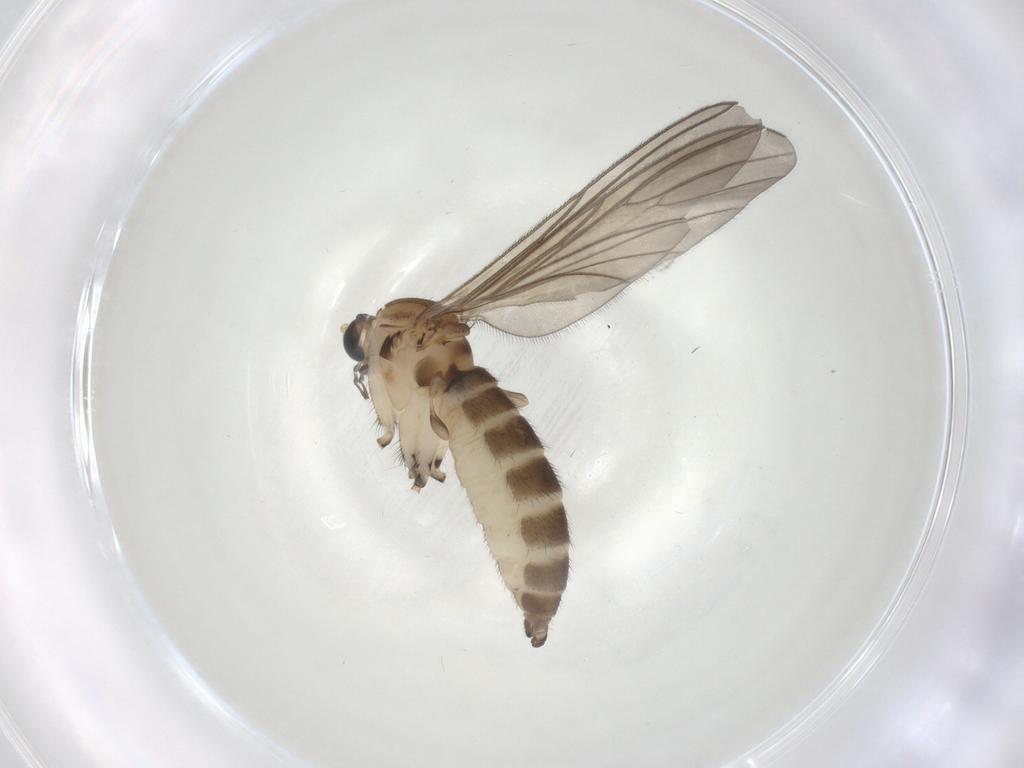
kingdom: Animalia
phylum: Arthropoda
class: Insecta
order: Diptera
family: Sciaridae
